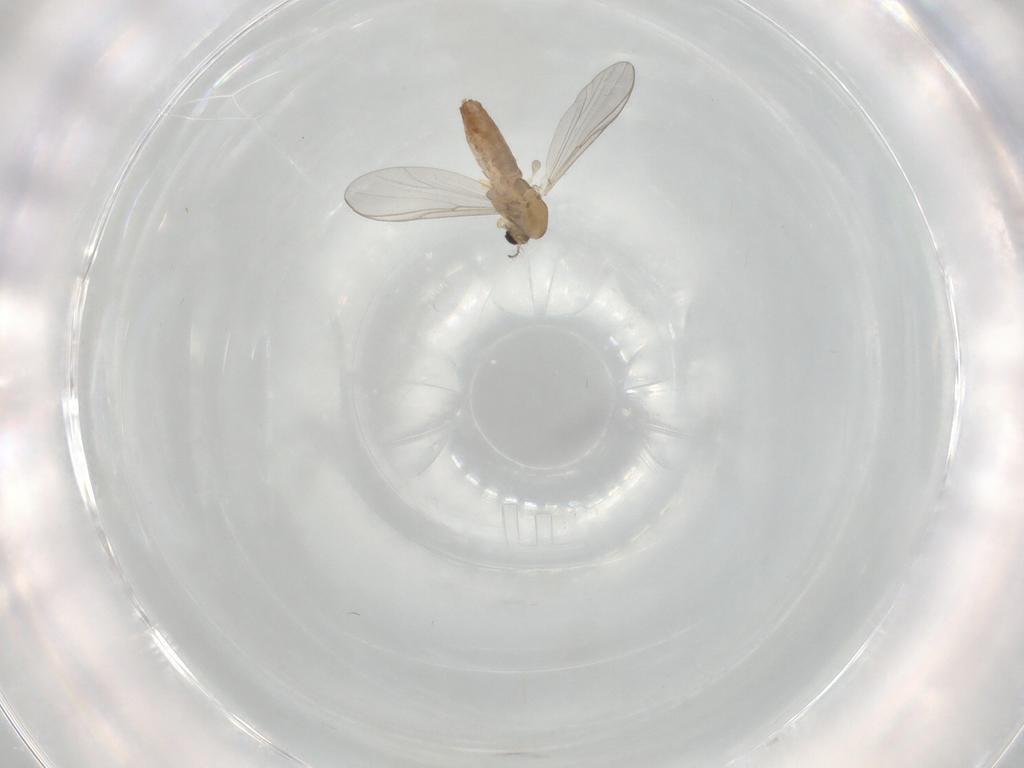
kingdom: Animalia
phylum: Arthropoda
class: Insecta
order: Diptera
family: Chironomidae
